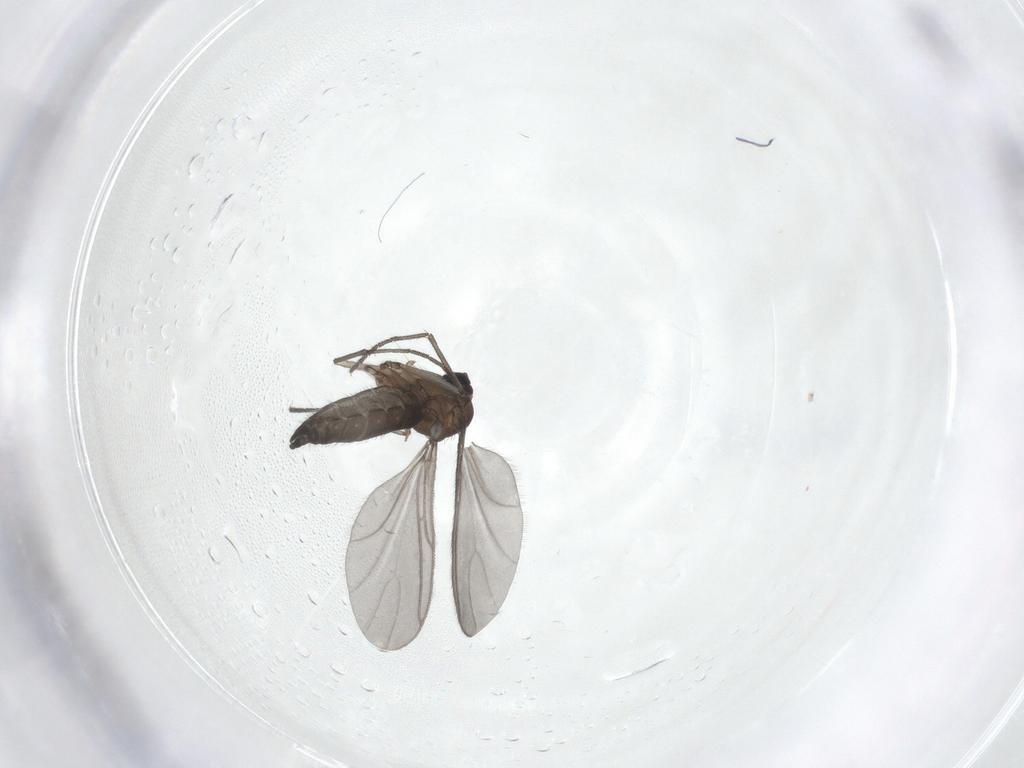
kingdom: Animalia
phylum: Arthropoda
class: Insecta
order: Diptera
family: Sciaridae
